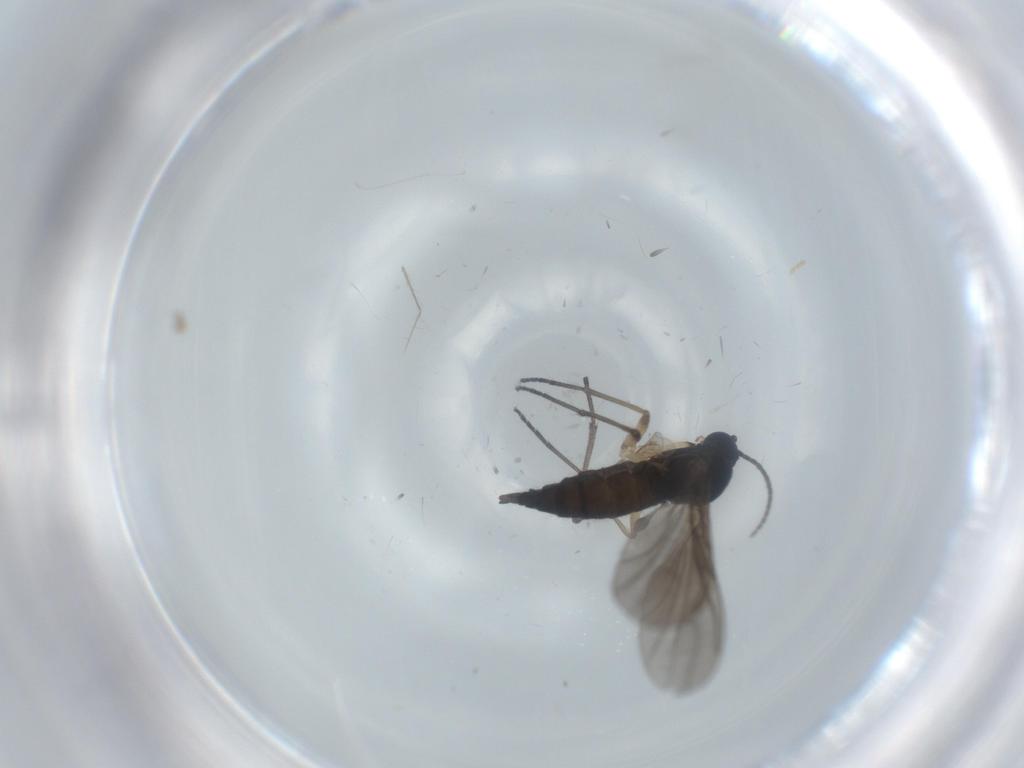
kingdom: Animalia
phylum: Arthropoda
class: Insecta
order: Diptera
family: Sciaridae
